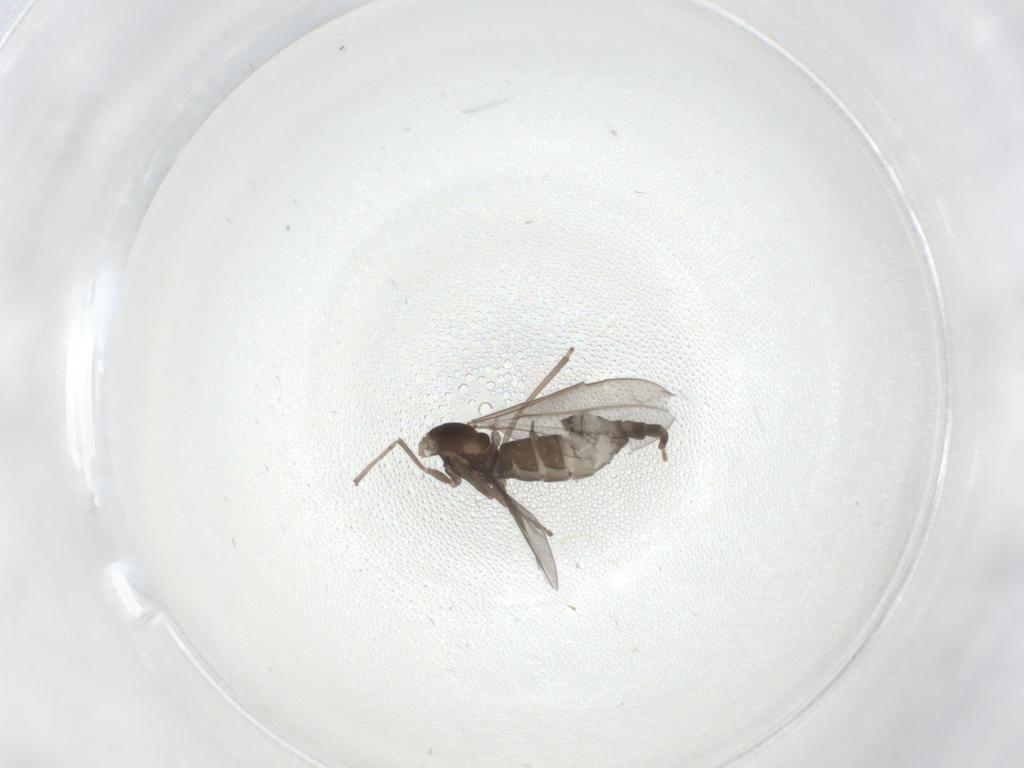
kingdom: Animalia
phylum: Arthropoda
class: Insecta
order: Diptera
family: Cecidomyiidae
